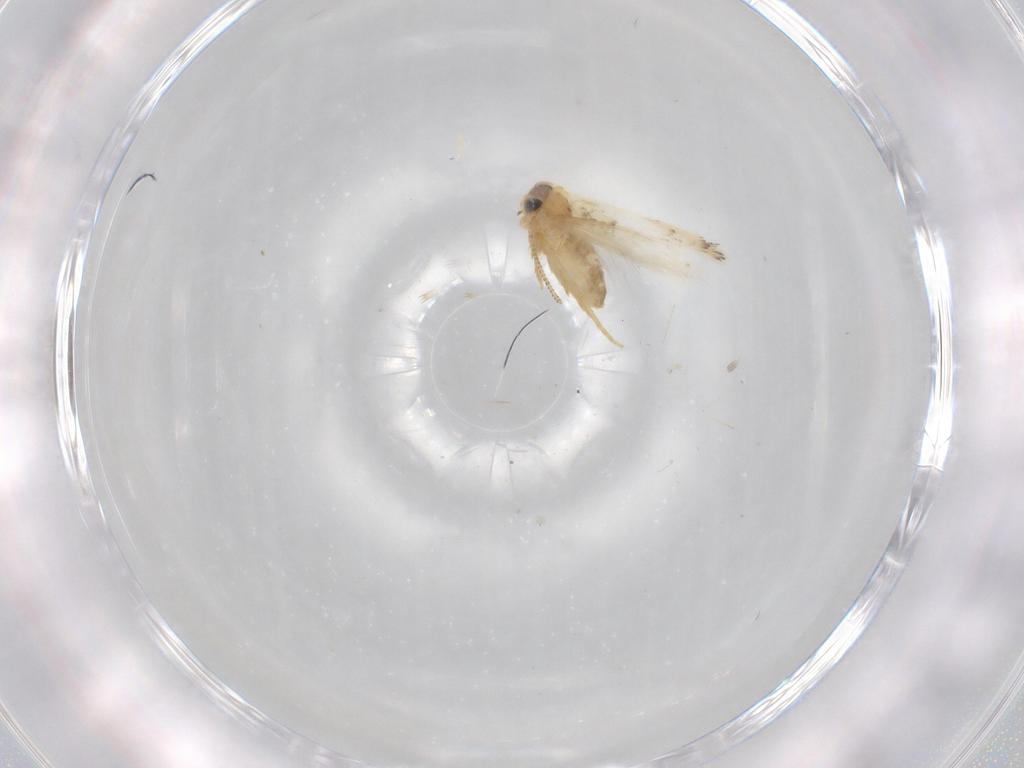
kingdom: Animalia
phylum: Arthropoda
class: Insecta
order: Lepidoptera
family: Nepticulidae
